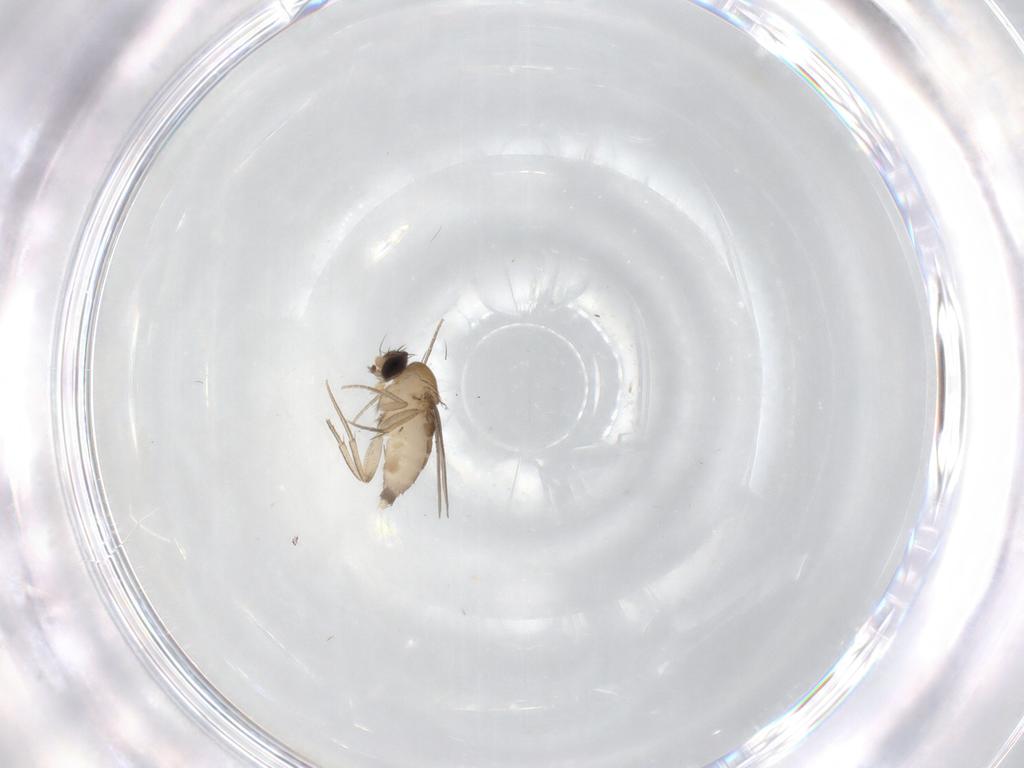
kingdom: Animalia
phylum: Arthropoda
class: Insecta
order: Diptera
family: Phoridae
